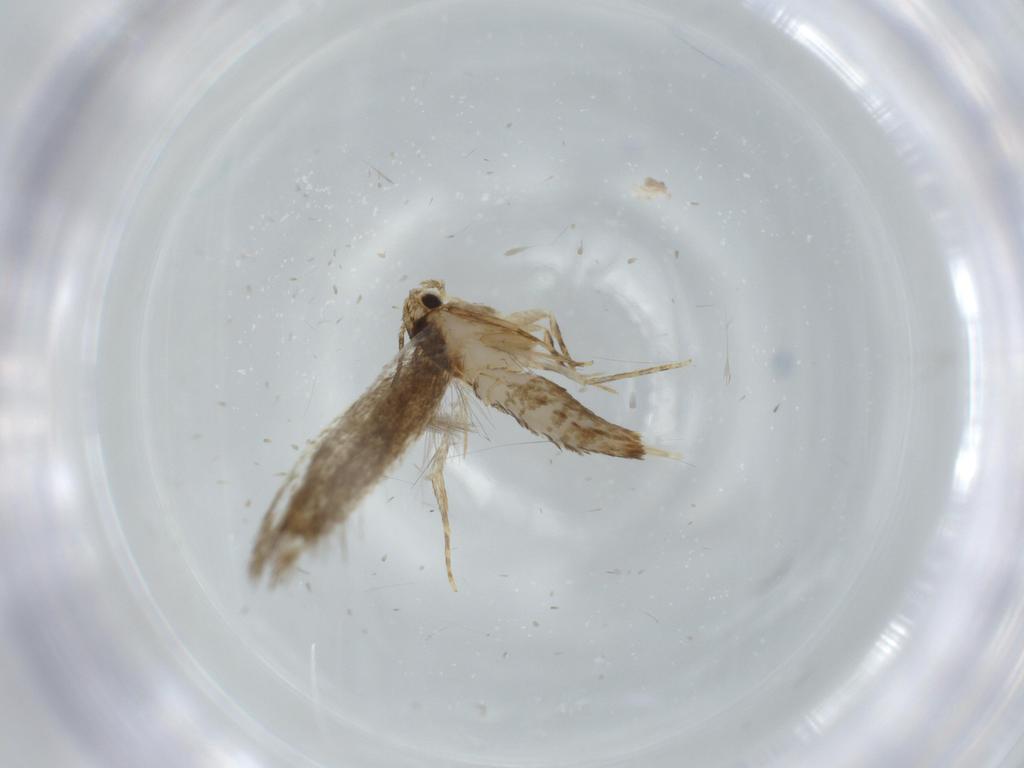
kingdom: Animalia
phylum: Arthropoda
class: Insecta
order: Lepidoptera
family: Tineidae
